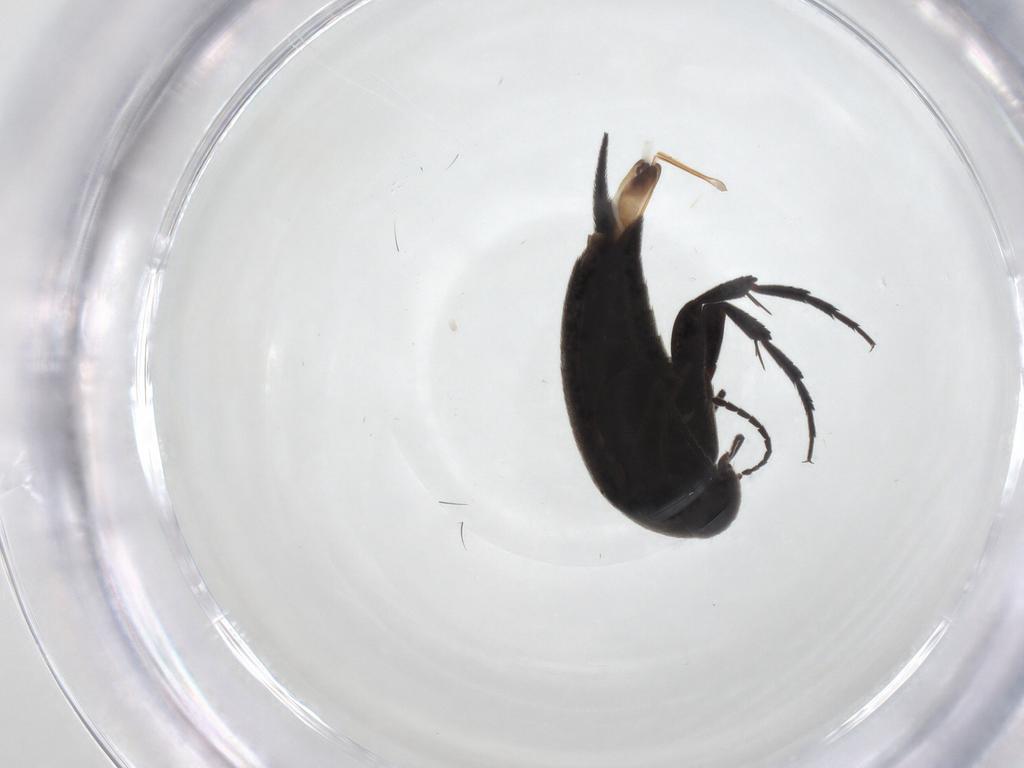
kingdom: Animalia
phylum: Arthropoda
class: Insecta
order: Coleoptera
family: Mordellidae
